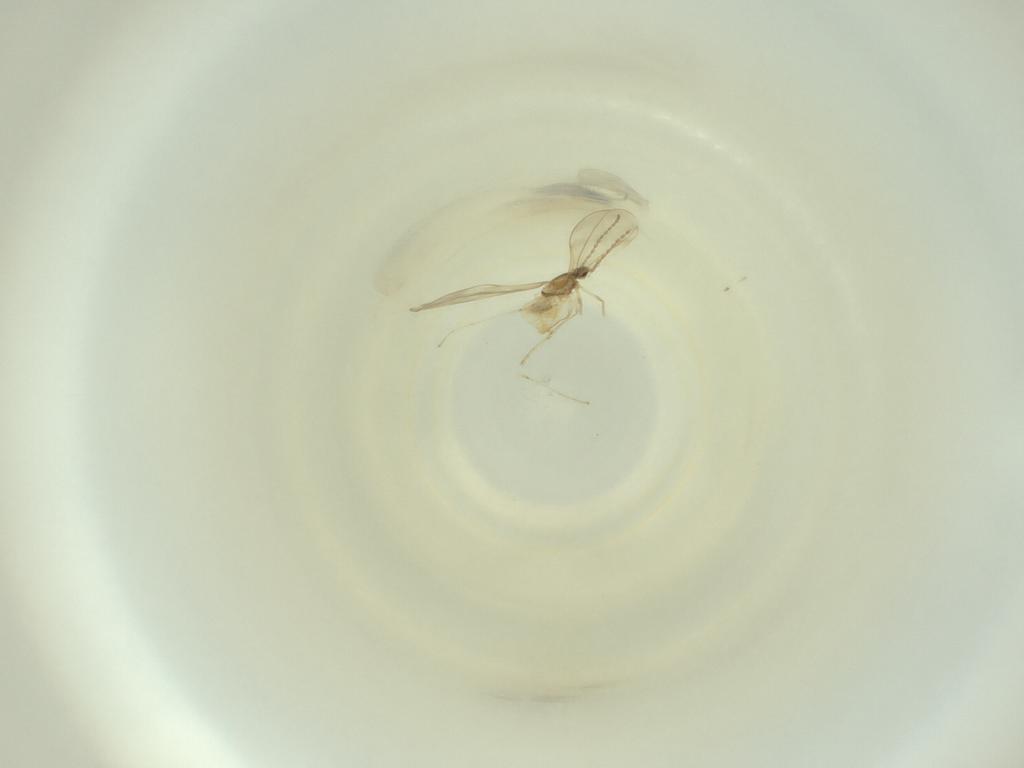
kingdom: Animalia
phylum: Arthropoda
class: Insecta
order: Diptera
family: Cecidomyiidae
